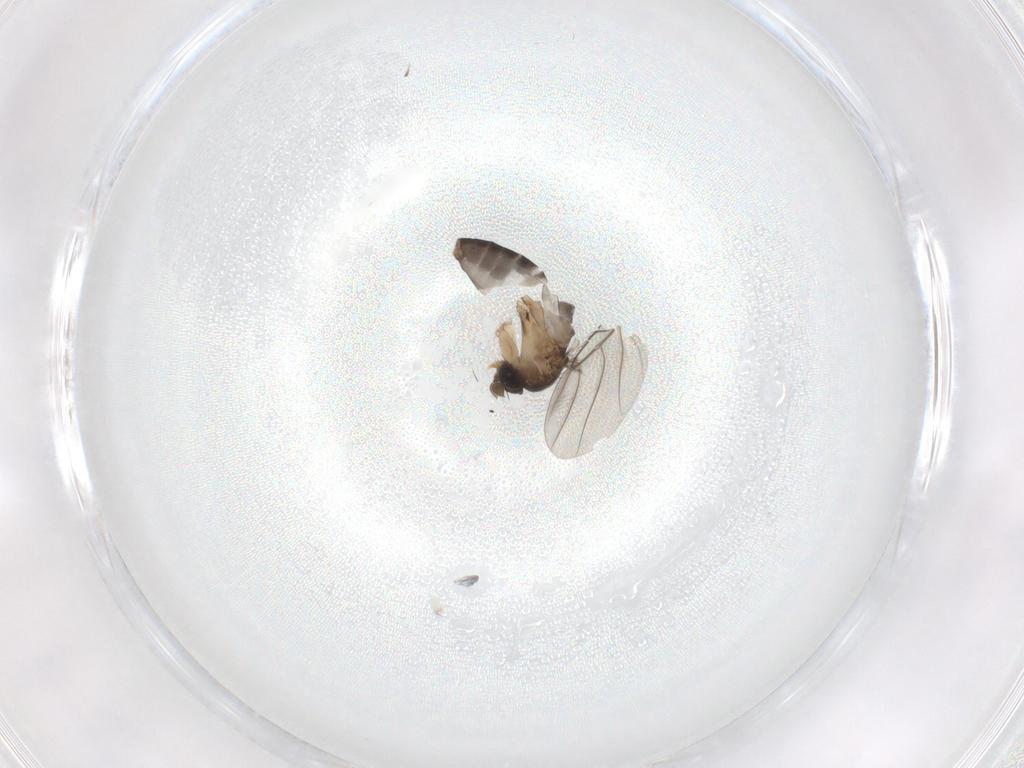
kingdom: Animalia
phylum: Arthropoda
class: Insecta
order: Diptera
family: Phoridae
